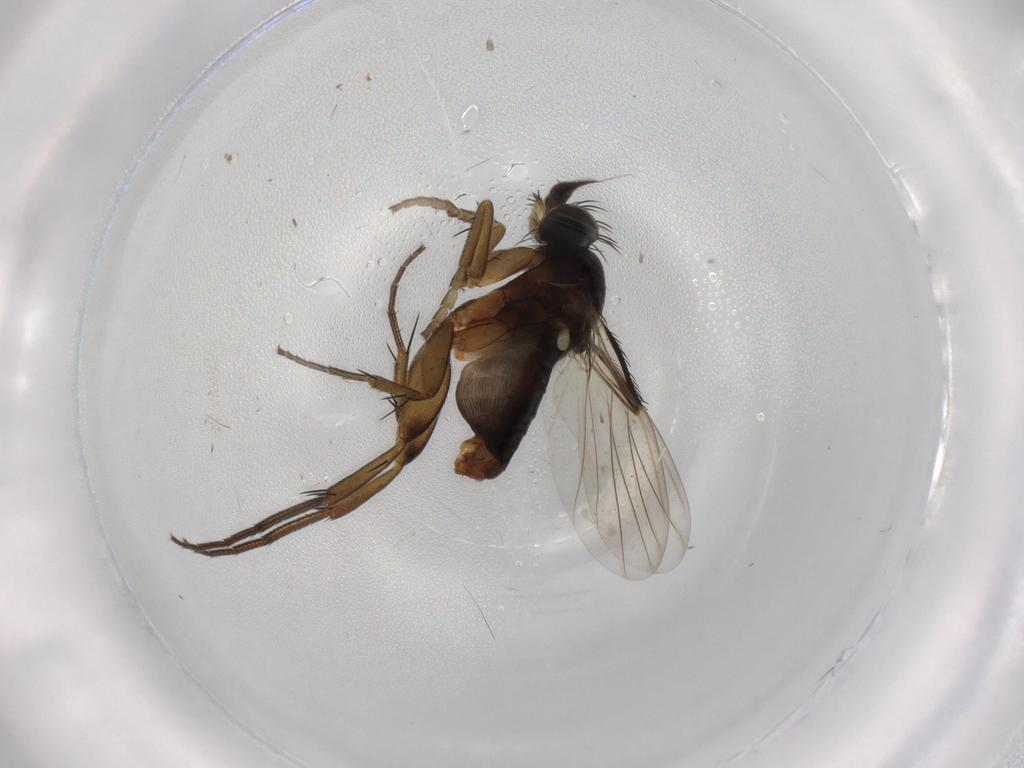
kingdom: Animalia
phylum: Arthropoda
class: Insecta
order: Diptera
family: Phoridae
